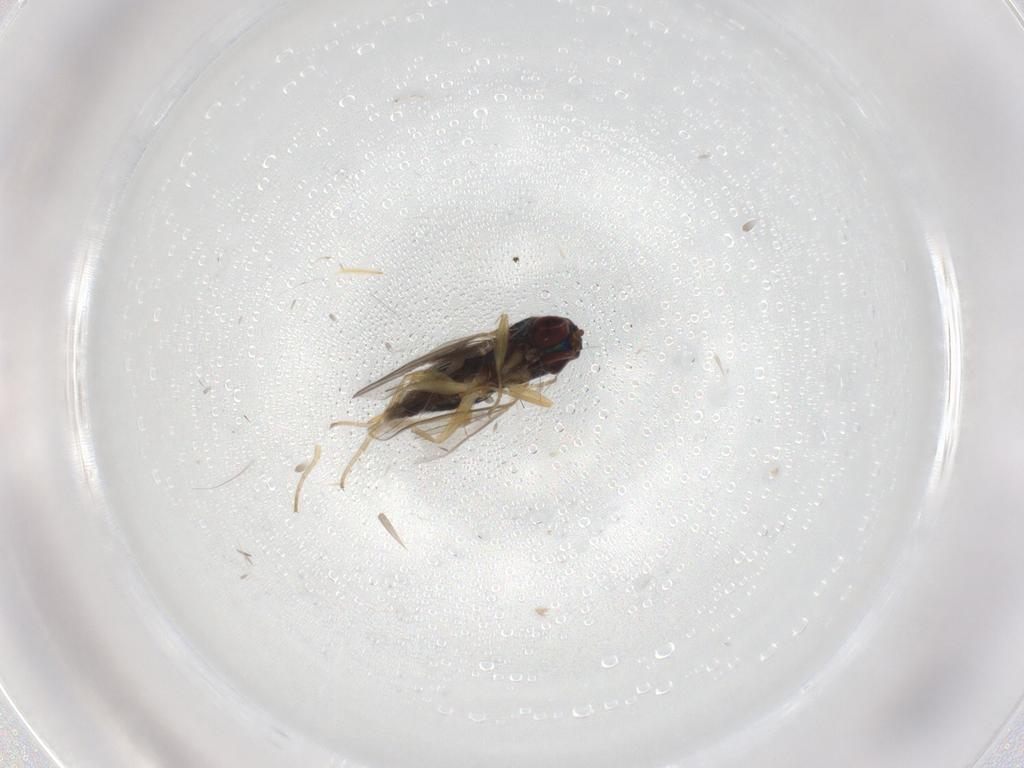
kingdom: Animalia
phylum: Arthropoda
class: Insecta
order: Diptera
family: Dolichopodidae
